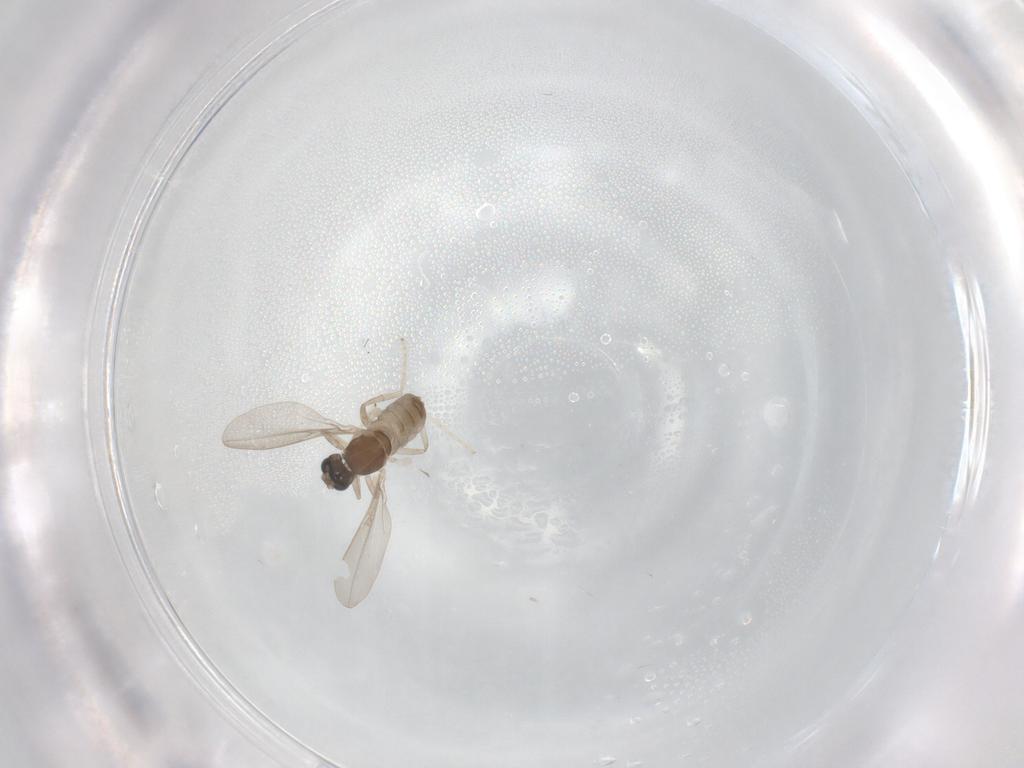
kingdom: Animalia
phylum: Arthropoda
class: Insecta
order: Diptera
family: Cecidomyiidae
